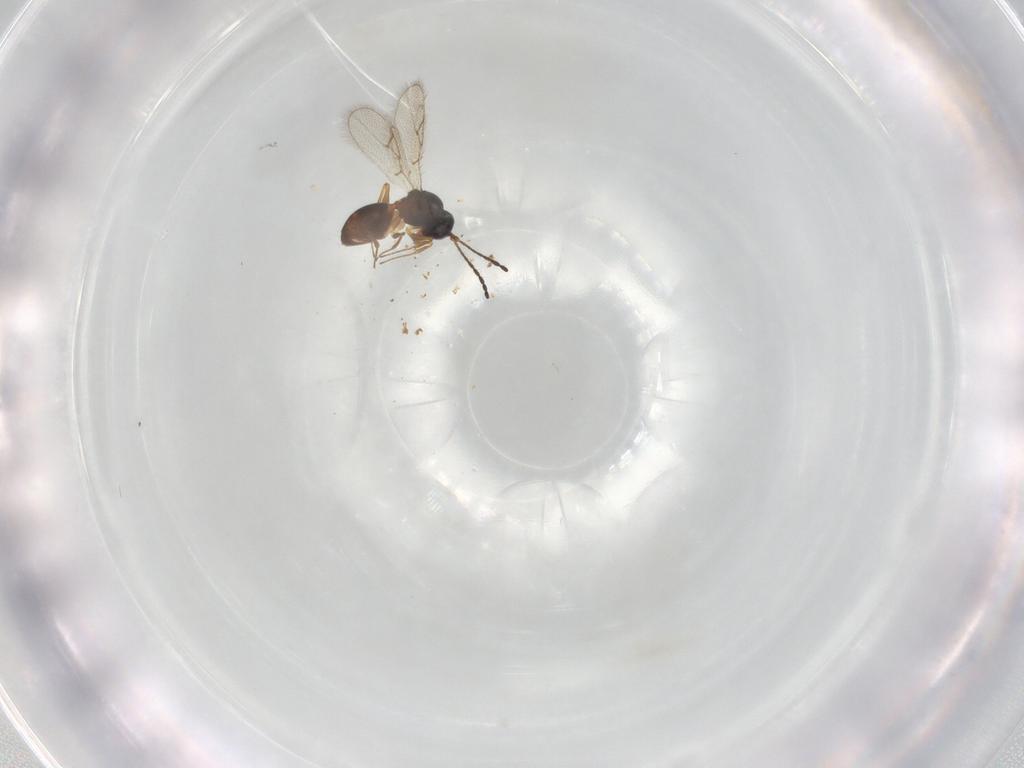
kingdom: Animalia
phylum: Arthropoda
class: Insecta
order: Hymenoptera
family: Figitidae
